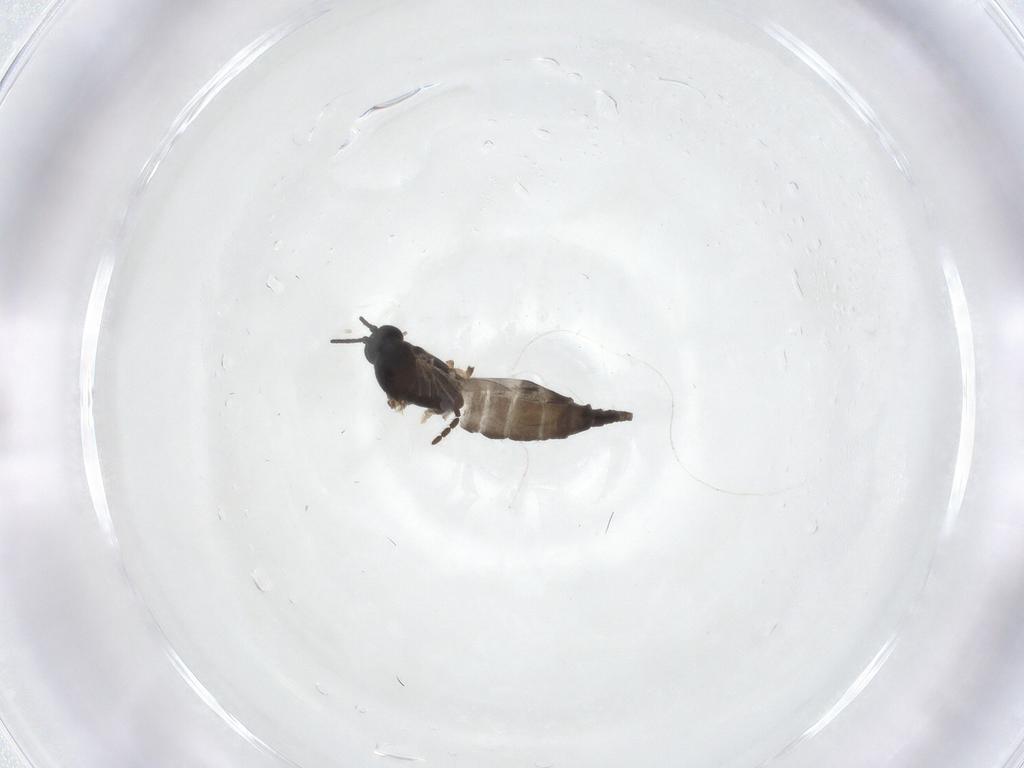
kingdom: Animalia
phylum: Arthropoda
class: Insecta
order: Diptera
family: Sciaridae
